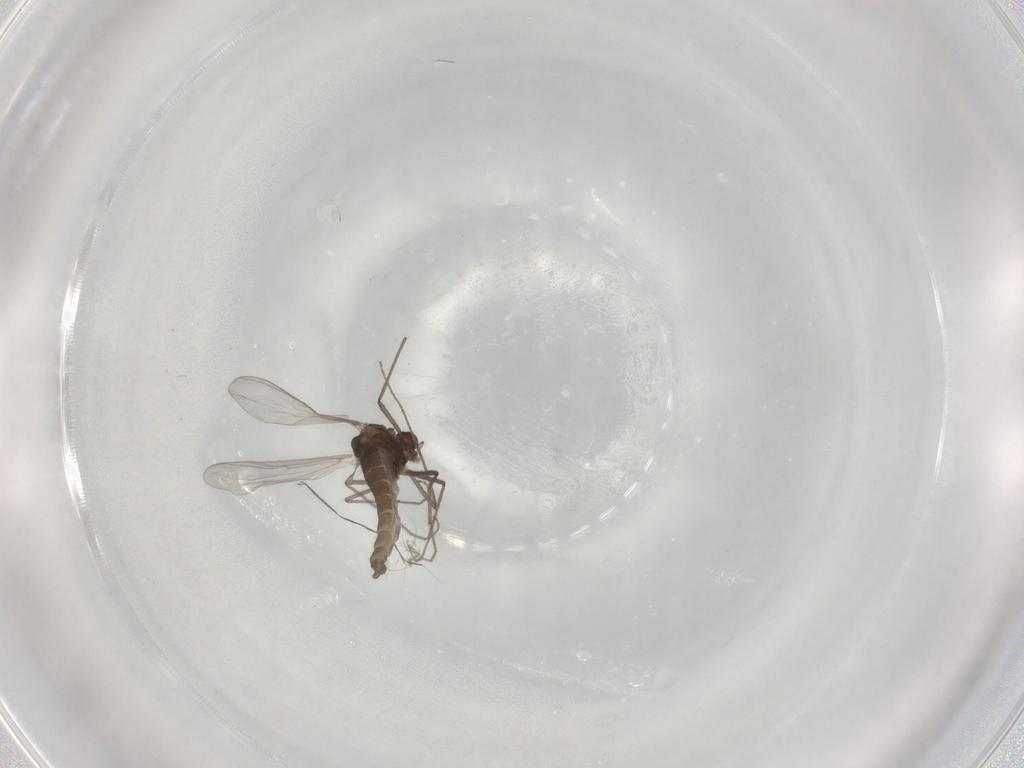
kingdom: Animalia
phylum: Arthropoda
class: Insecta
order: Diptera
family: Chironomidae
